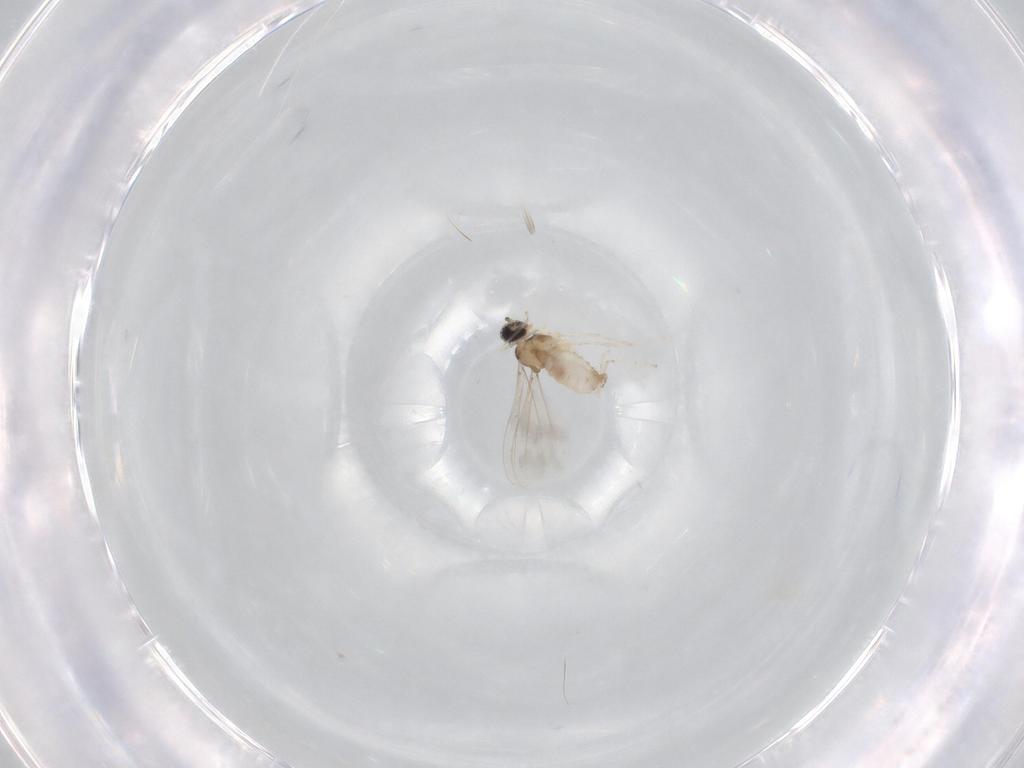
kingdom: Animalia
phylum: Arthropoda
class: Insecta
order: Diptera
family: Cecidomyiidae
